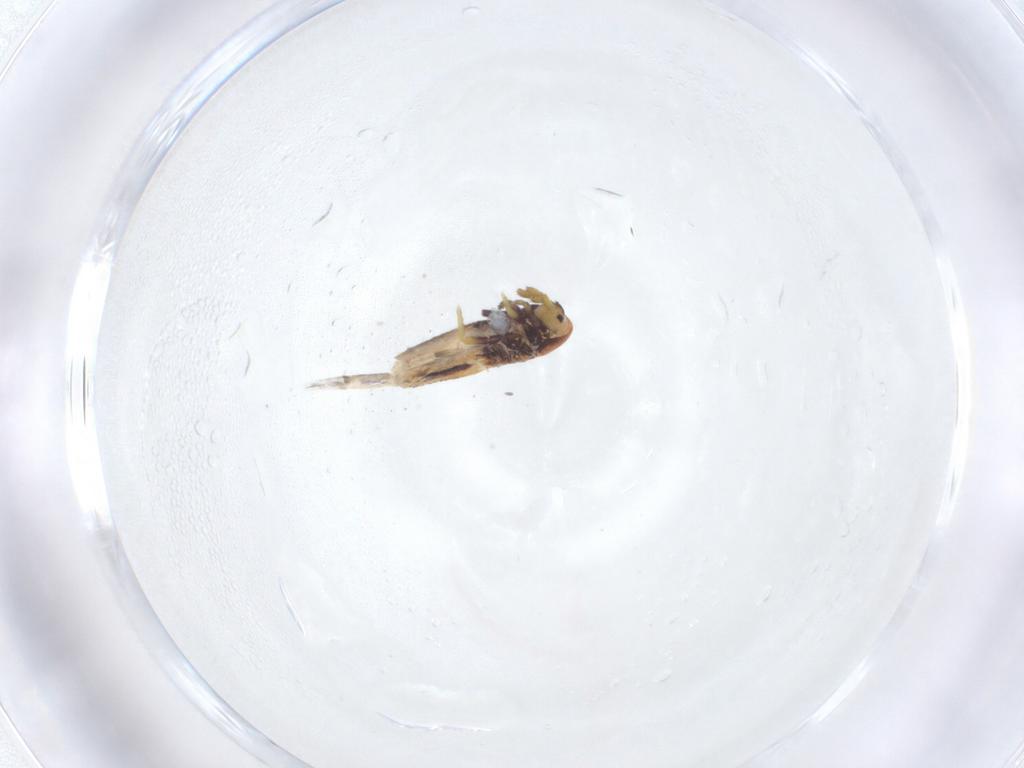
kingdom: Animalia
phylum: Arthropoda
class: Collembola
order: Entomobryomorpha
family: Entomobryidae
